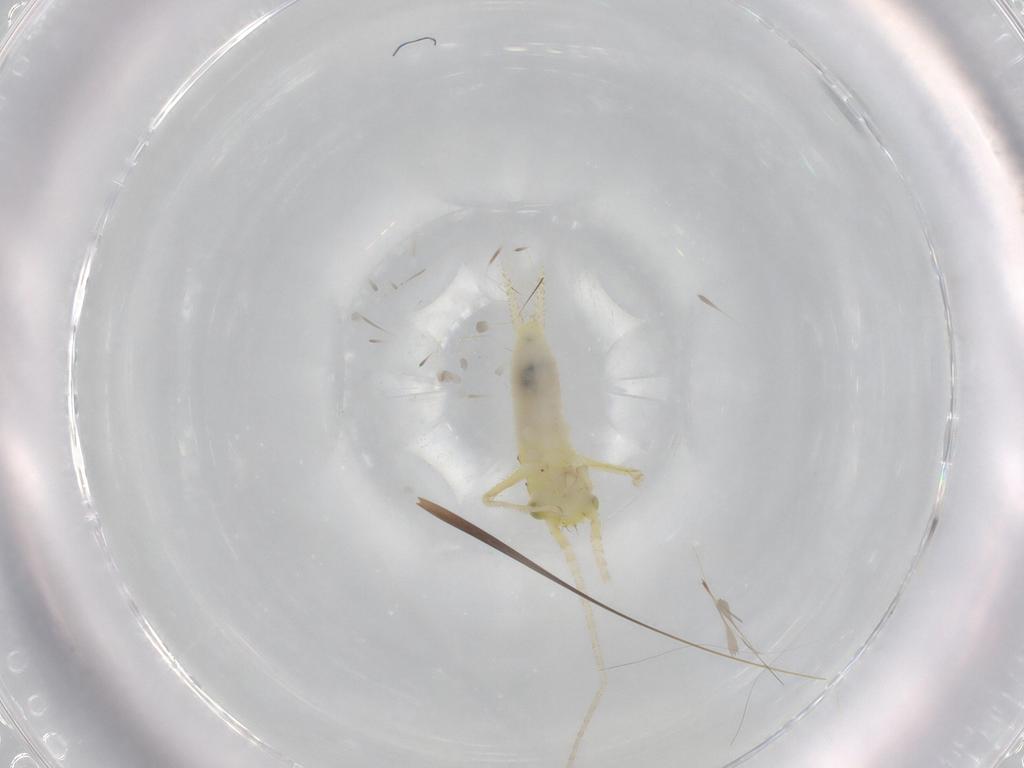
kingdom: Animalia
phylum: Arthropoda
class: Insecta
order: Orthoptera
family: Trigonidiidae
